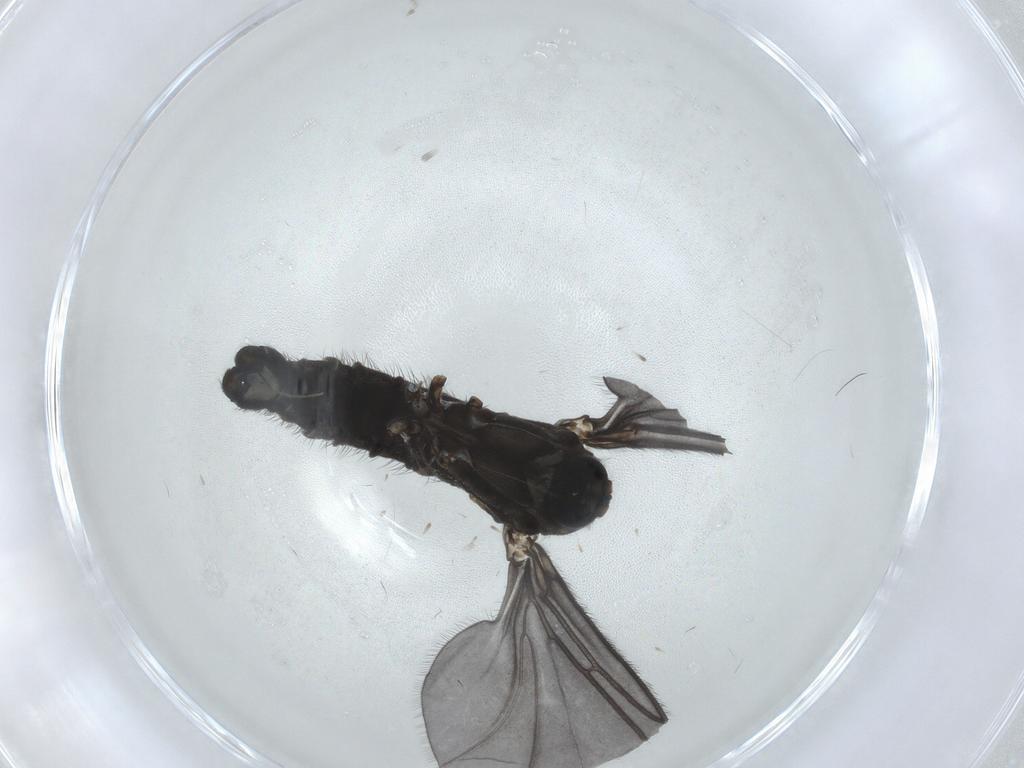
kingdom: Animalia
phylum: Arthropoda
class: Insecta
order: Diptera
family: Sciaridae
